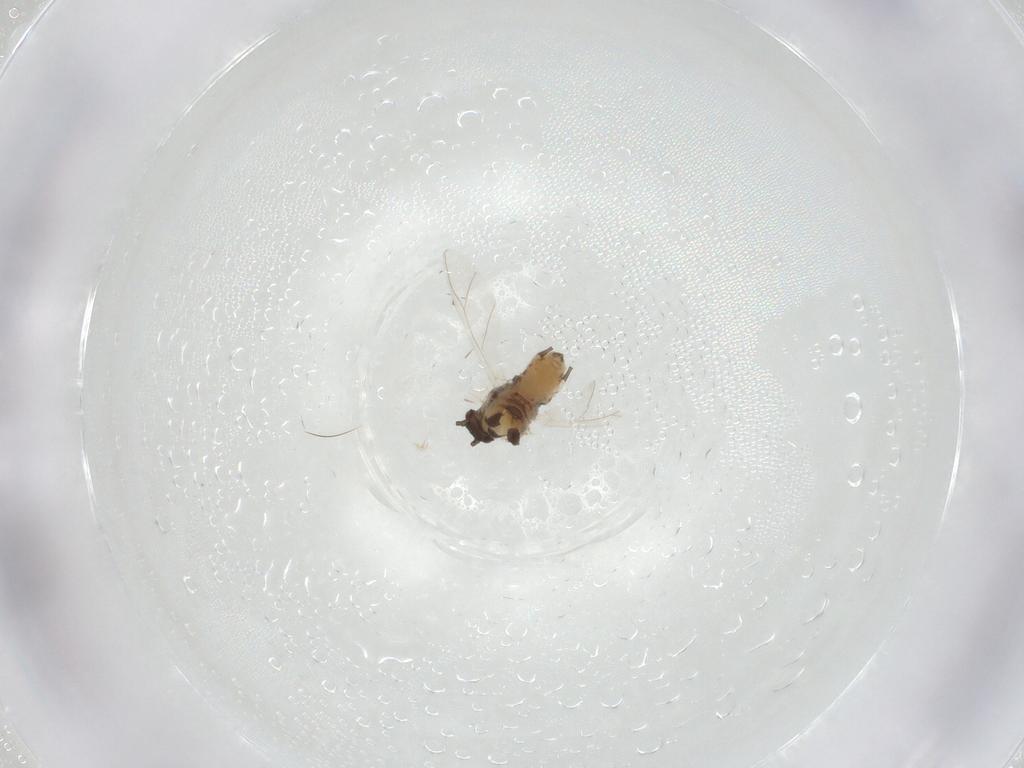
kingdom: Animalia
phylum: Arthropoda
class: Insecta
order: Hemiptera
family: Aphididae
